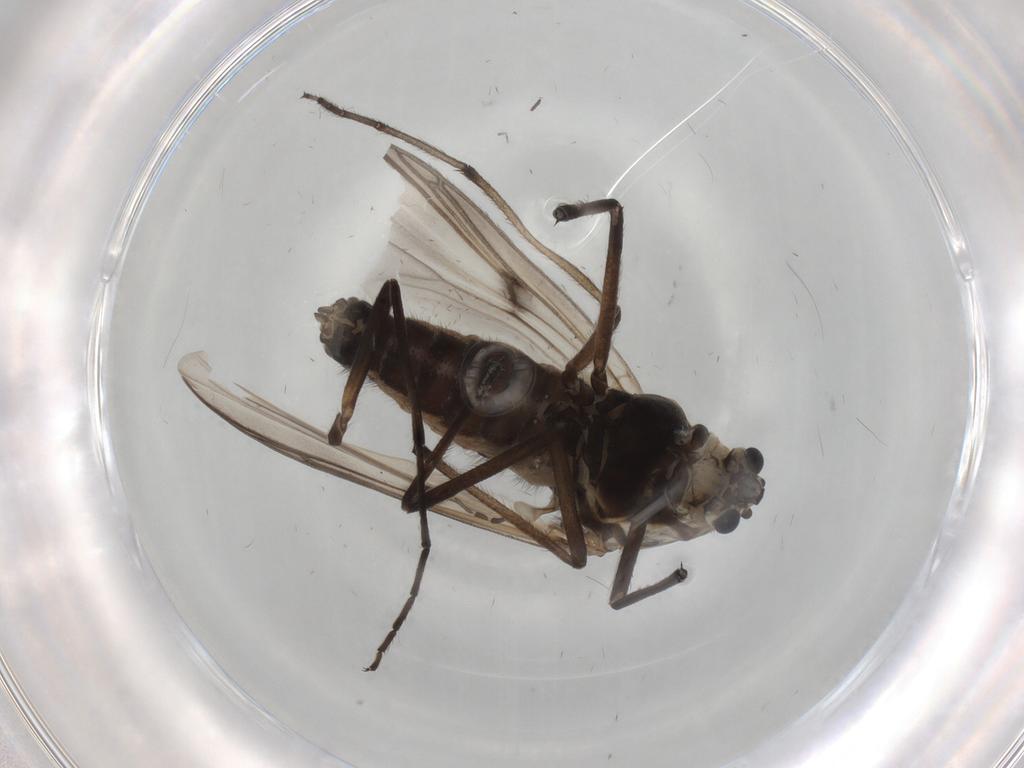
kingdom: Animalia
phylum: Arthropoda
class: Insecta
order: Diptera
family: Chironomidae
